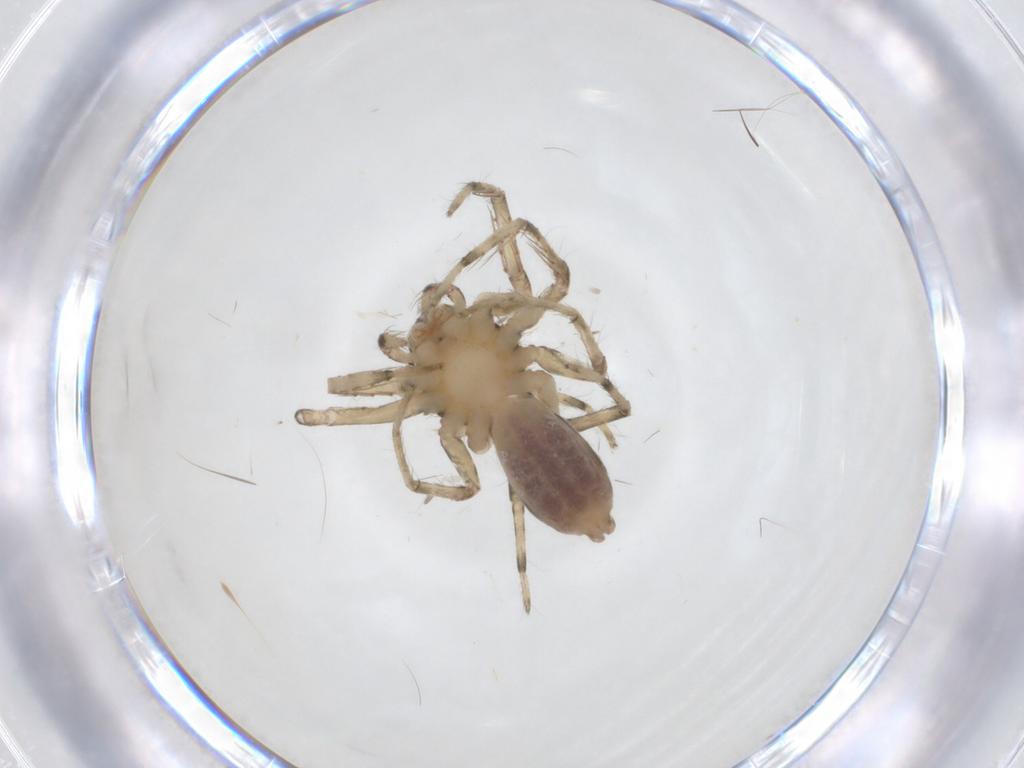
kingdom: Animalia
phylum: Arthropoda
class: Arachnida
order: Araneae
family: Senoculidae
